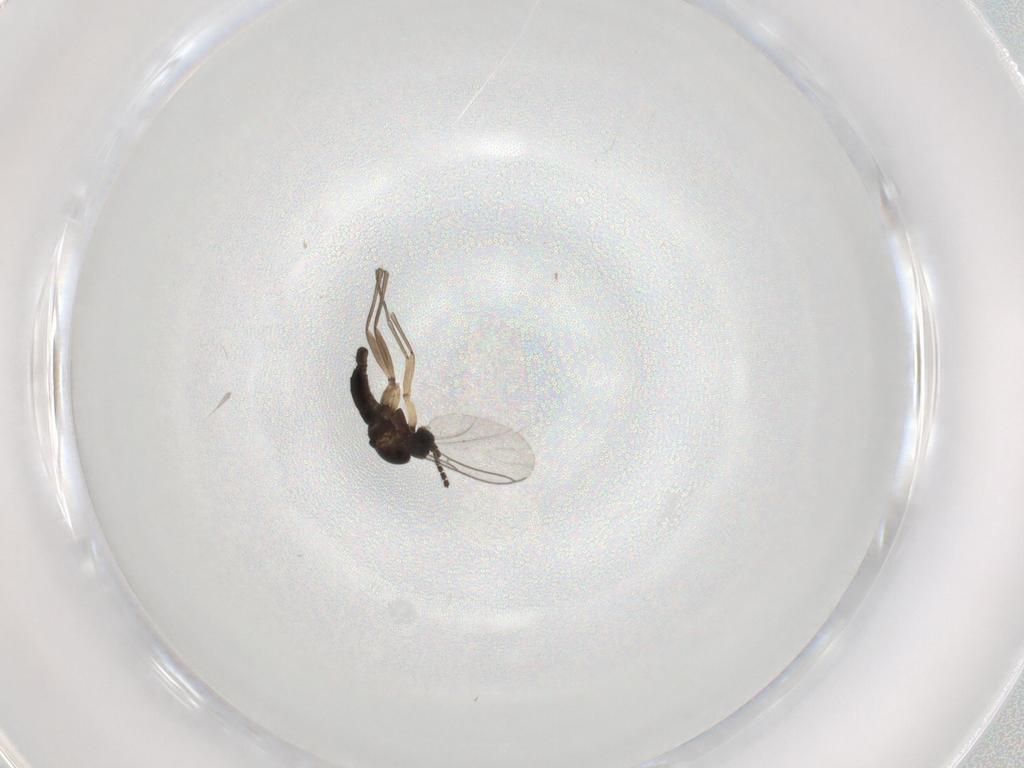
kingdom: Animalia
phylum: Arthropoda
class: Insecta
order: Diptera
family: Sciaridae
